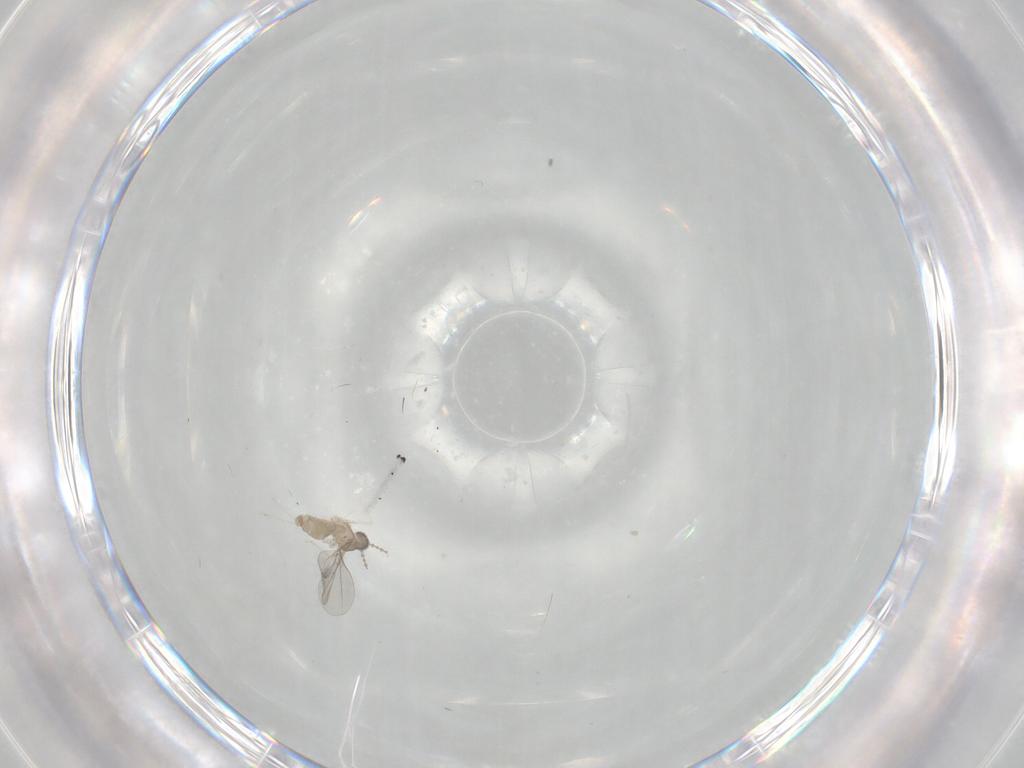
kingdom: Animalia
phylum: Arthropoda
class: Insecta
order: Diptera
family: Cecidomyiidae
